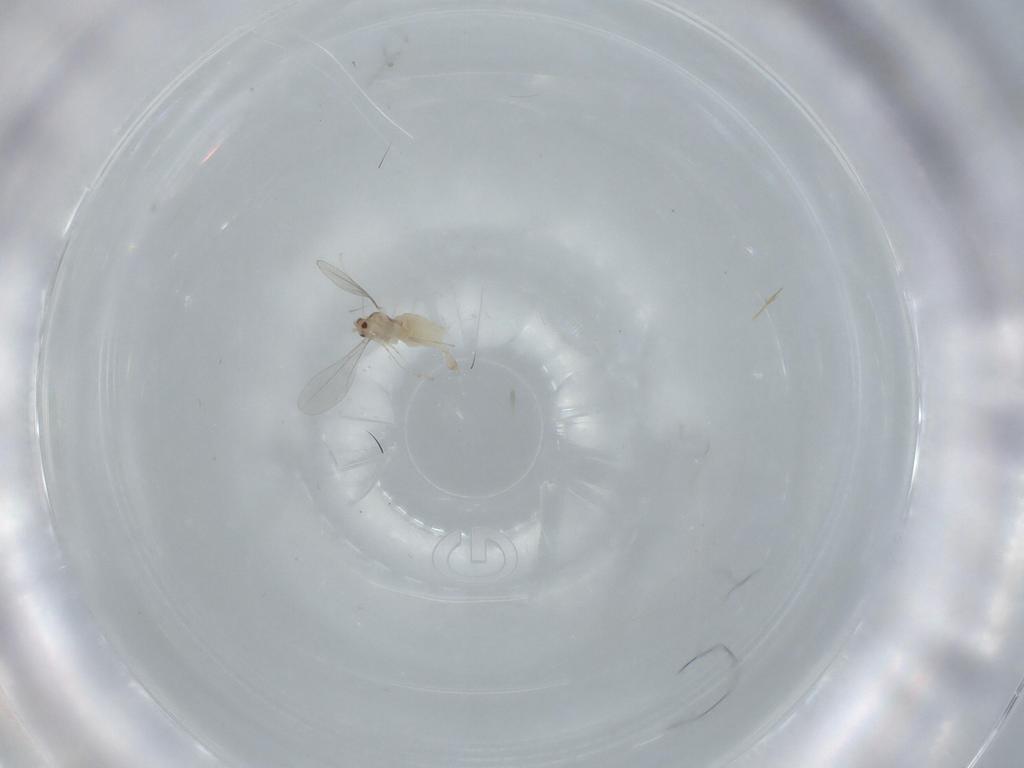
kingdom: Animalia
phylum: Arthropoda
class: Insecta
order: Diptera
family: Cecidomyiidae
